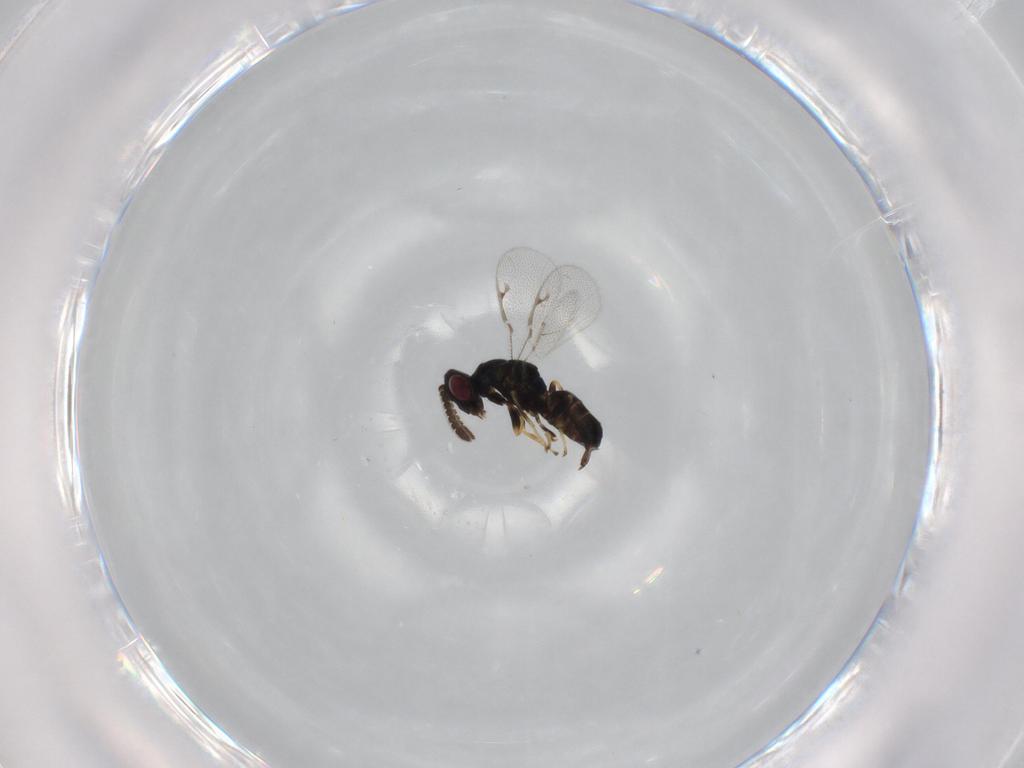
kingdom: Animalia
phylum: Arthropoda
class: Insecta
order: Hymenoptera
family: Pteromalidae
